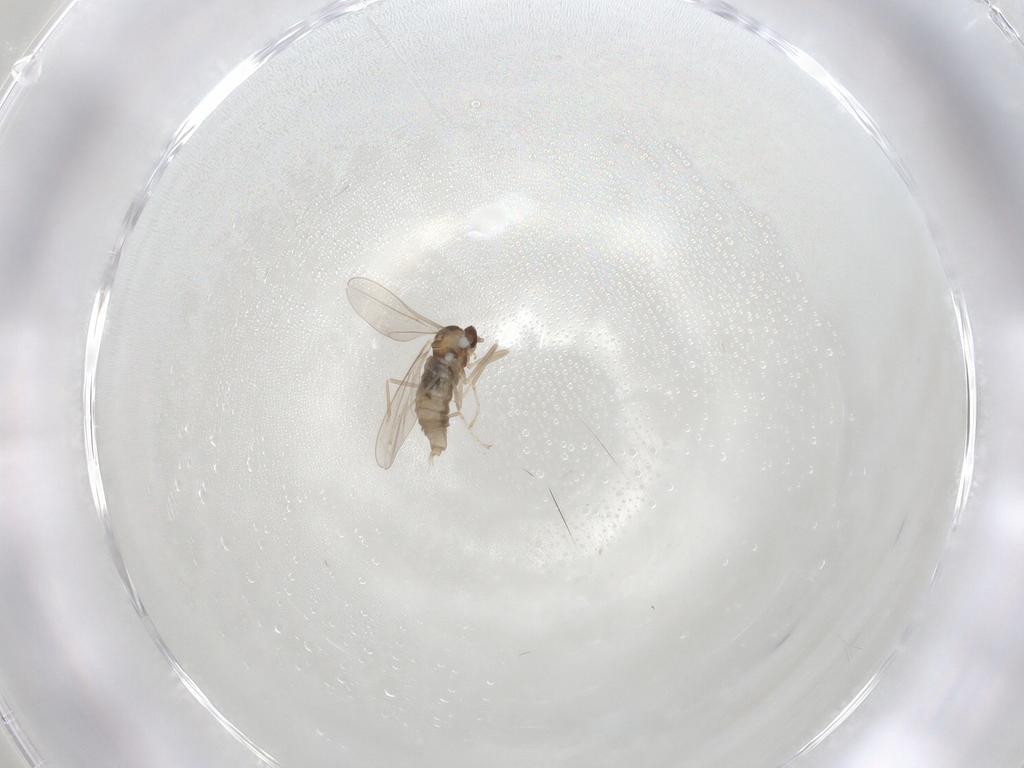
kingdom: Animalia
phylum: Arthropoda
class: Insecta
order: Diptera
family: Cecidomyiidae
